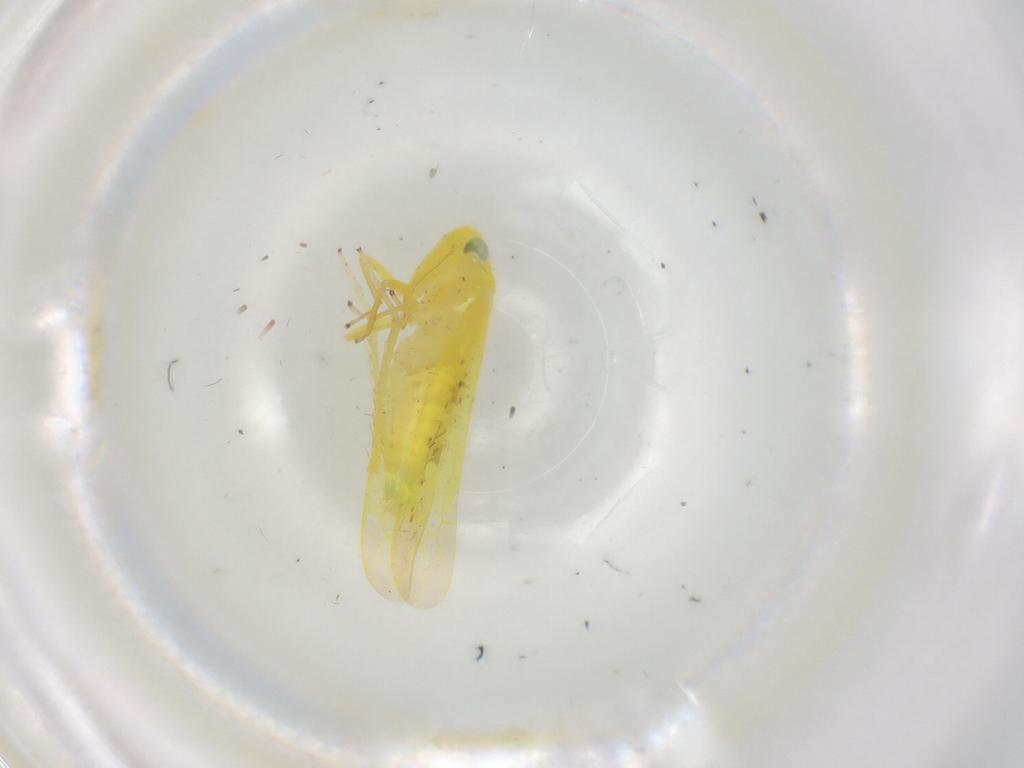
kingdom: Animalia
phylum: Arthropoda
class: Insecta
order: Hemiptera
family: Cicadellidae
